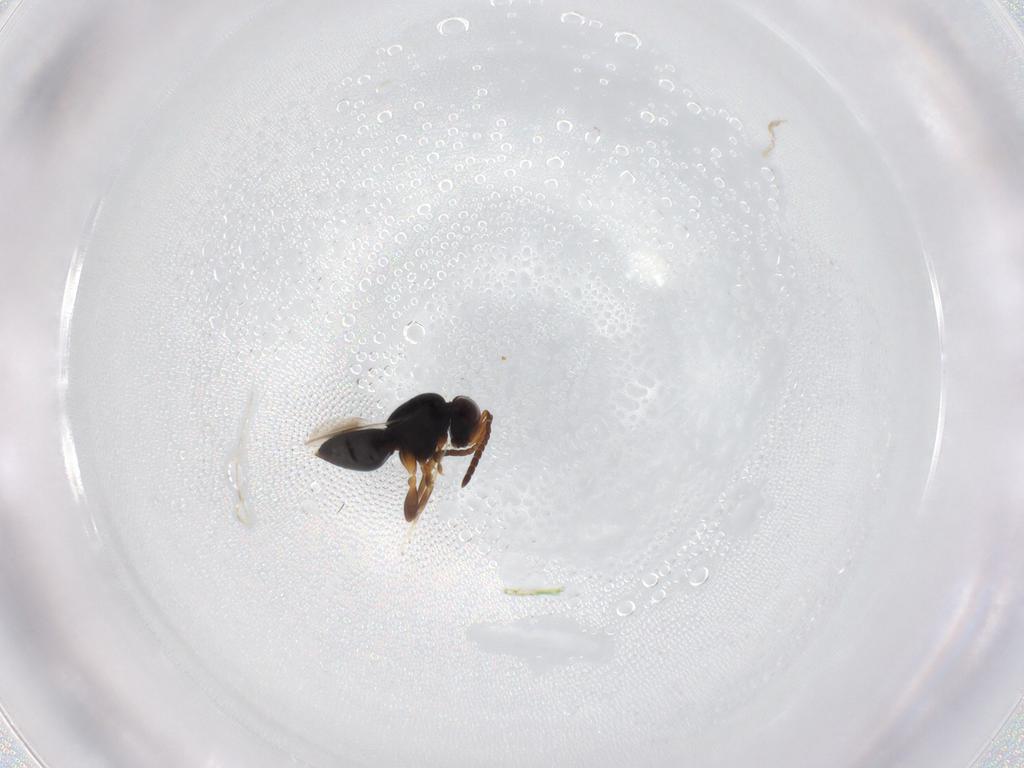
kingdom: Animalia
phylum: Arthropoda
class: Insecta
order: Hymenoptera
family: Ceraphronidae
